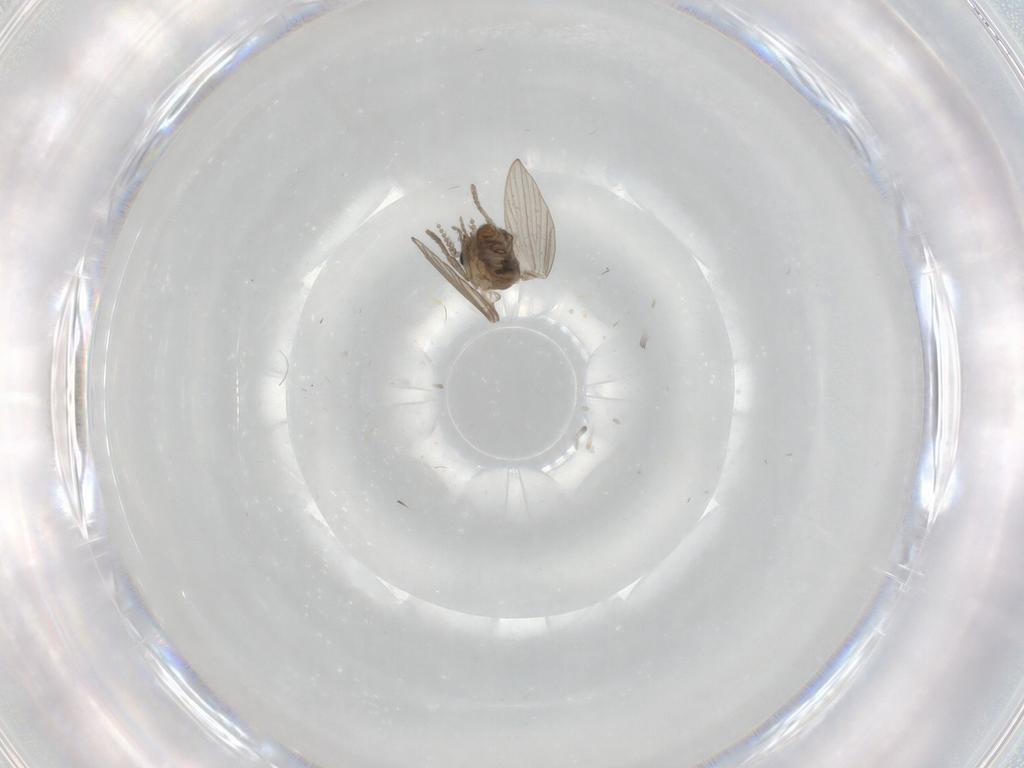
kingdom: Animalia
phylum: Arthropoda
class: Insecta
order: Diptera
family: Psychodidae
